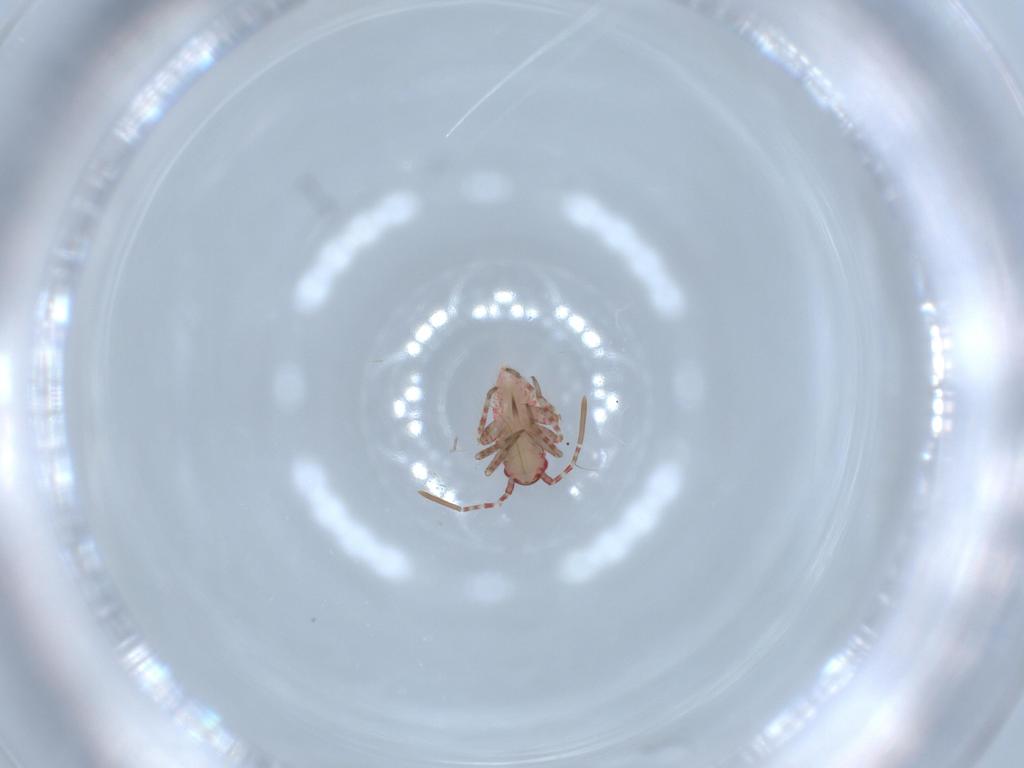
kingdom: Animalia
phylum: Arthropoda
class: Insecta
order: Hemiptera
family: Miridae
